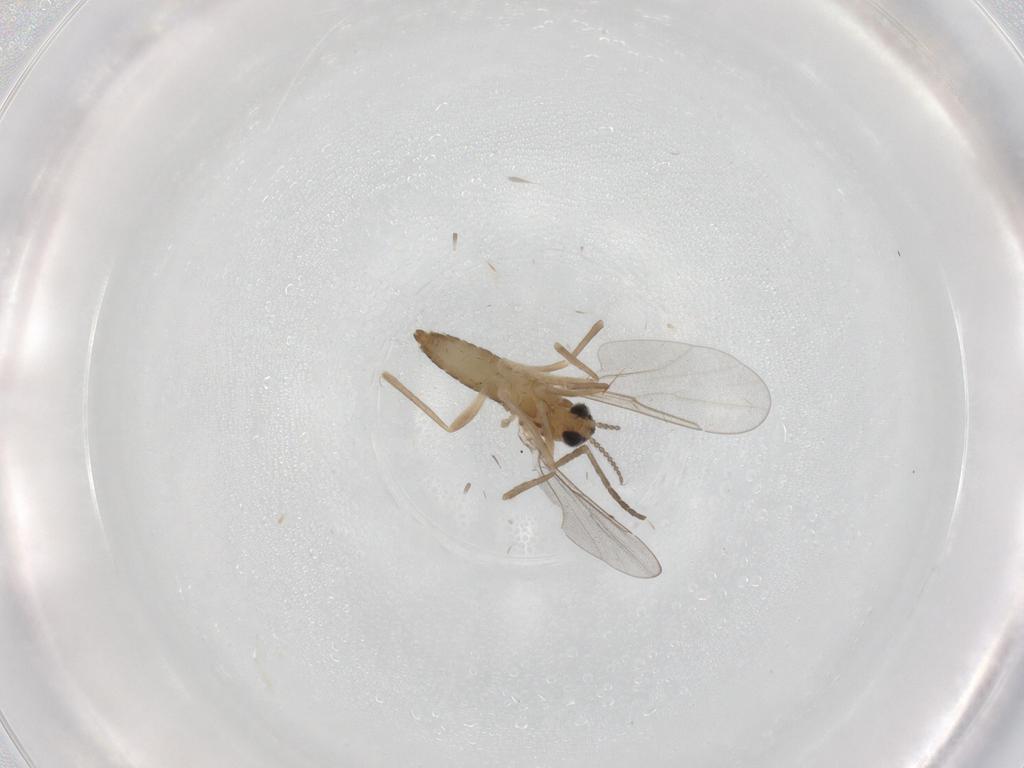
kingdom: Animalia
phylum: Arthropoda
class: Insecta
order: Diptera
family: Cecidomyiidae
